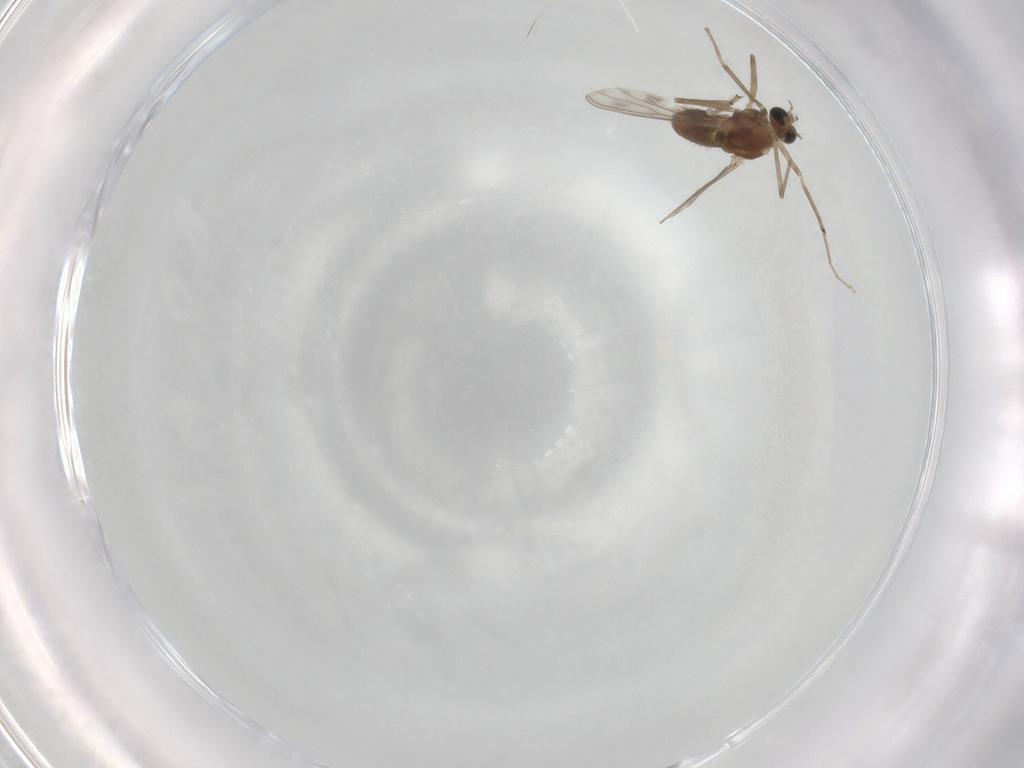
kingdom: Animalia
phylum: Arthropoda
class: Insecta
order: Diptera
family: Chironomidae
